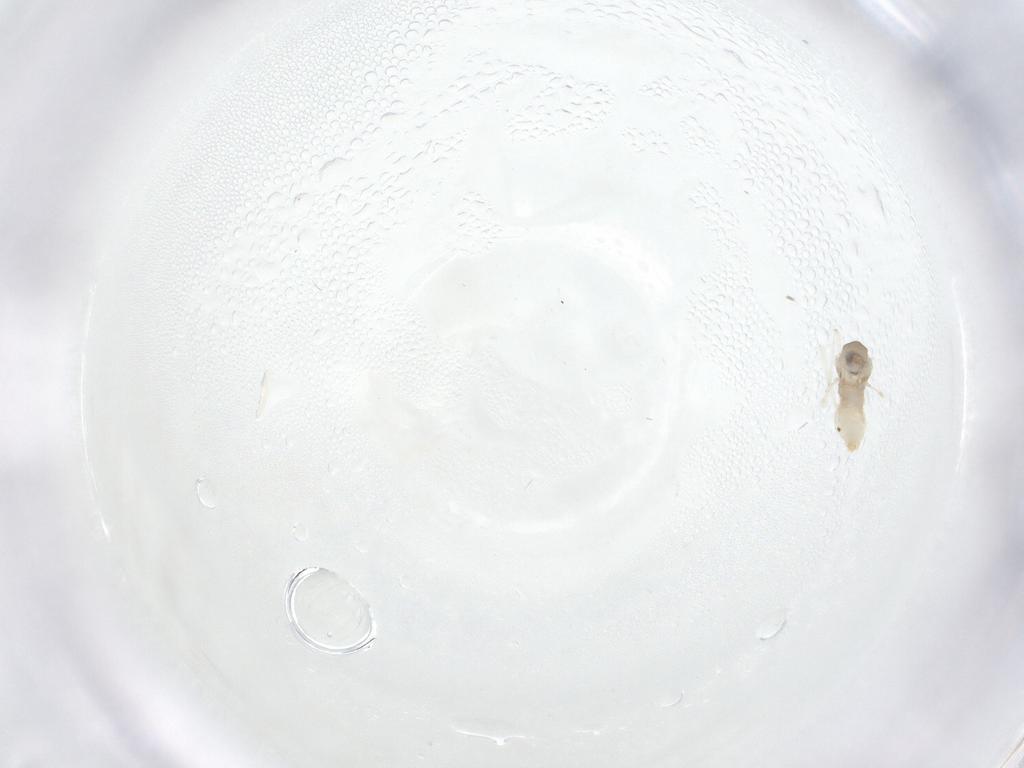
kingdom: Animalia
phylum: Arthropoda
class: Insecta
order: Diptera
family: Cecidomyiidae
